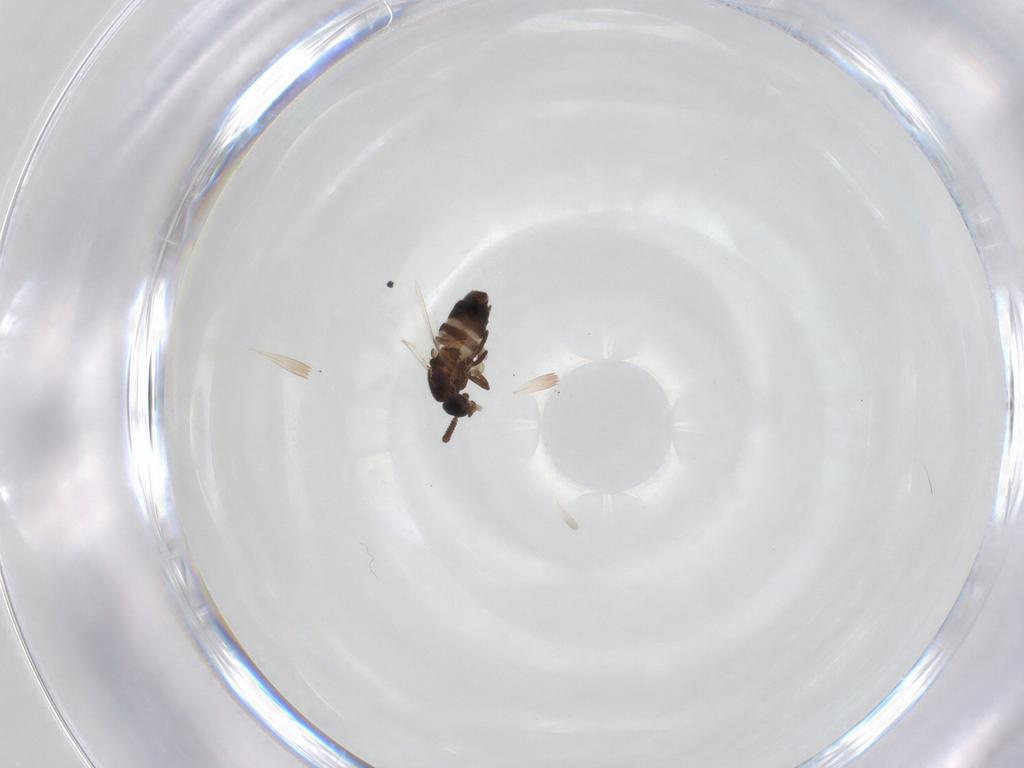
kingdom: Animalia
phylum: Arthropoda
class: Insecta
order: Diptera
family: Scatopsidae
